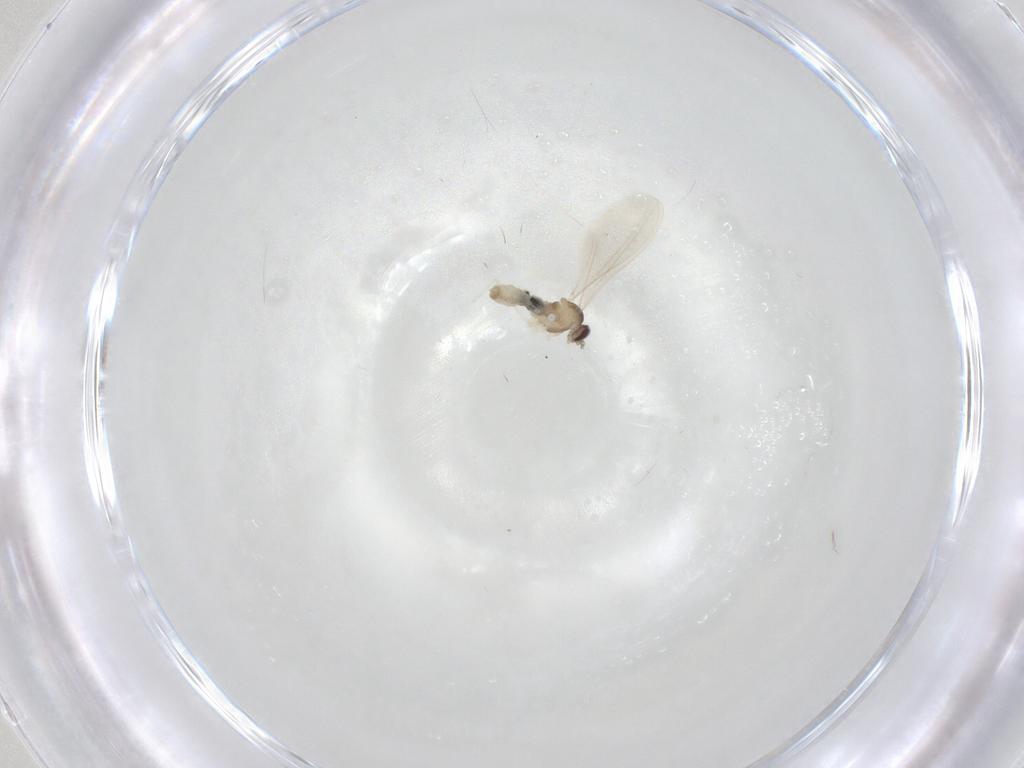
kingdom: Animalia
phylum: Arthropoda
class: Insecta
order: Diptera
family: Cecidomyiidae
